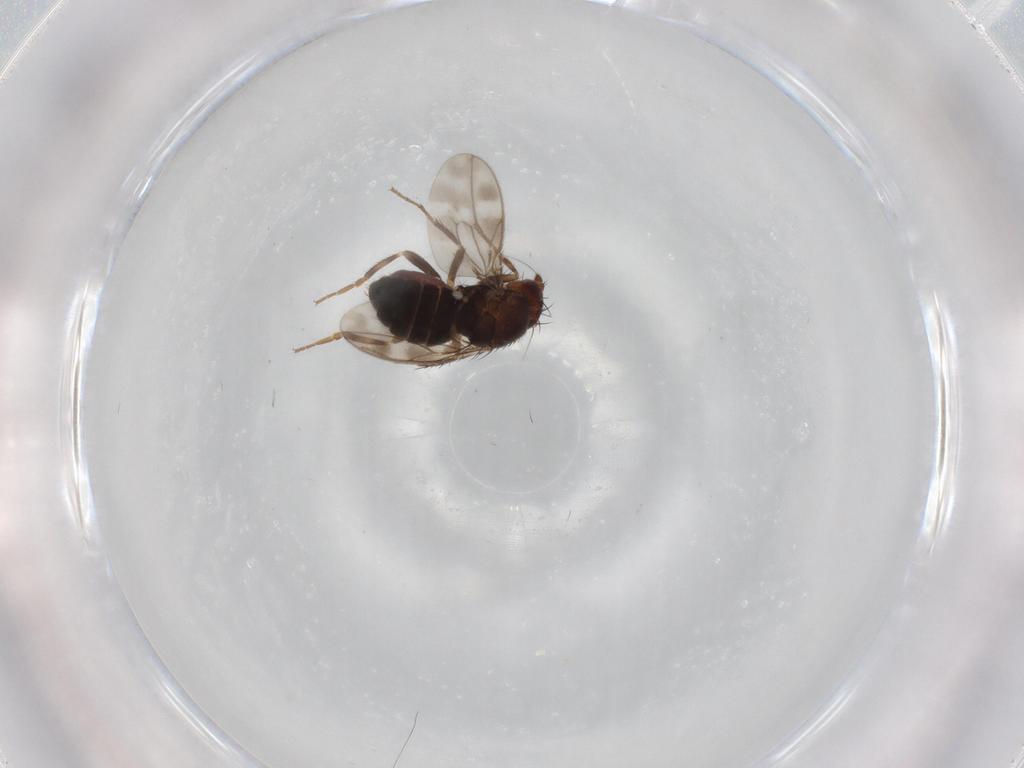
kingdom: Animalia
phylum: Arthropoda
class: Insecta
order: Diptera
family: Sphaeroceridae
